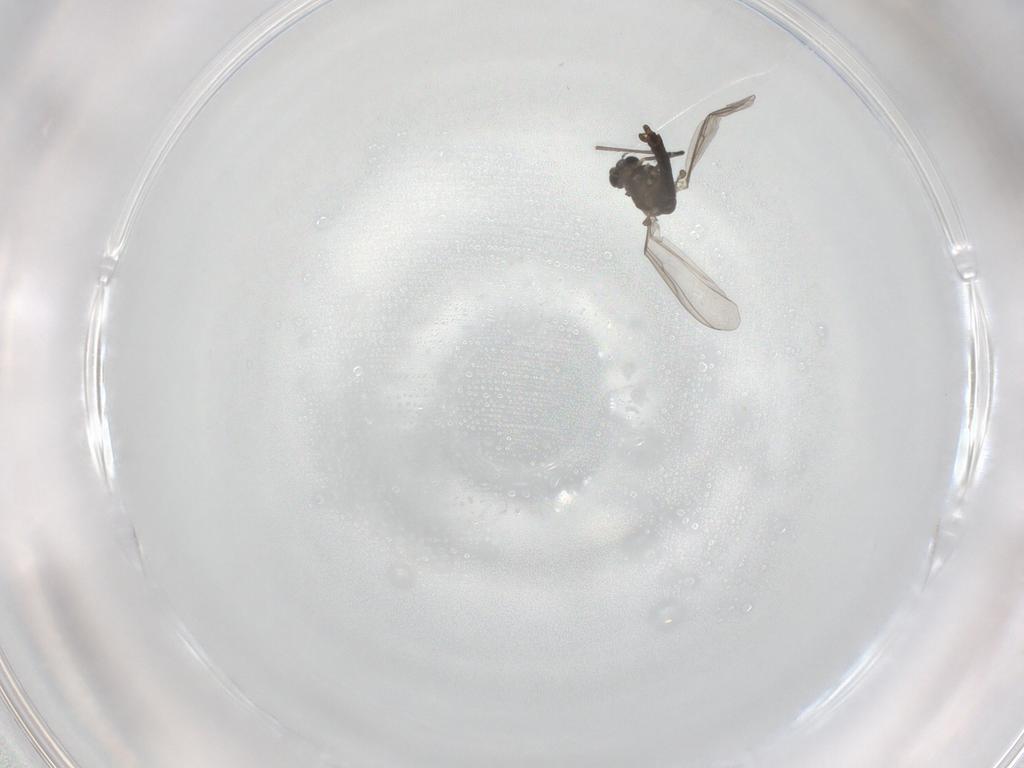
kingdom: Animalia
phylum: Arthropoda
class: Insecta
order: Diptera
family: Chironomidae
